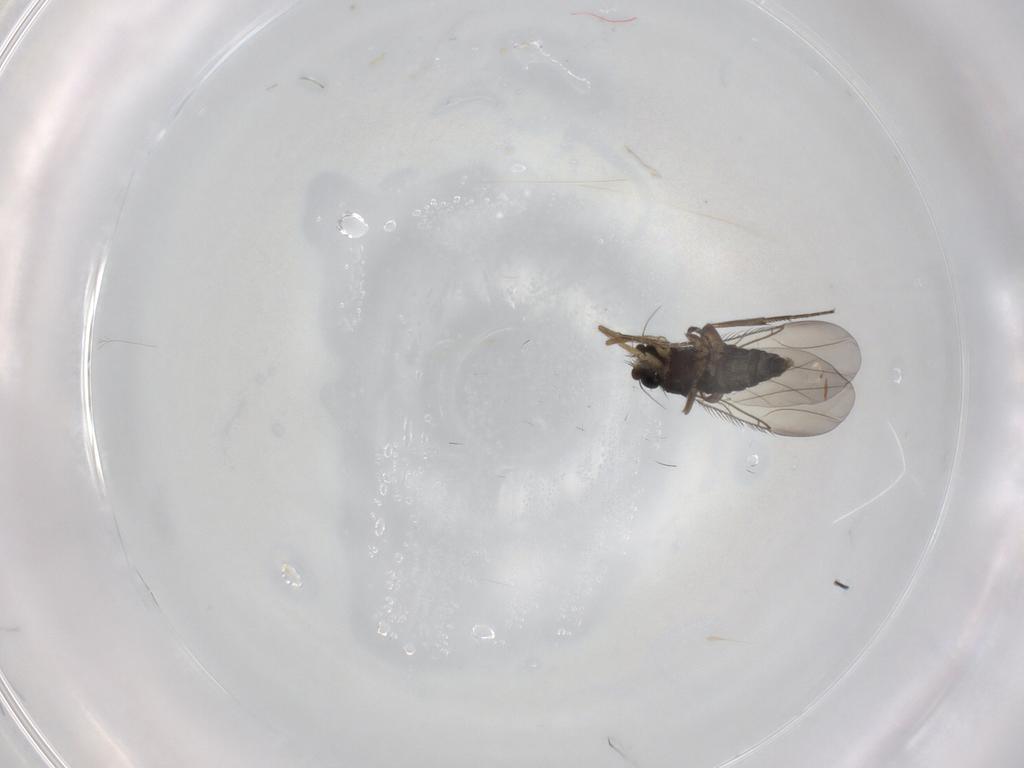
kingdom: Animalia
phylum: Arthropoda
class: Insecta
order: Diptera
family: Phoridae
